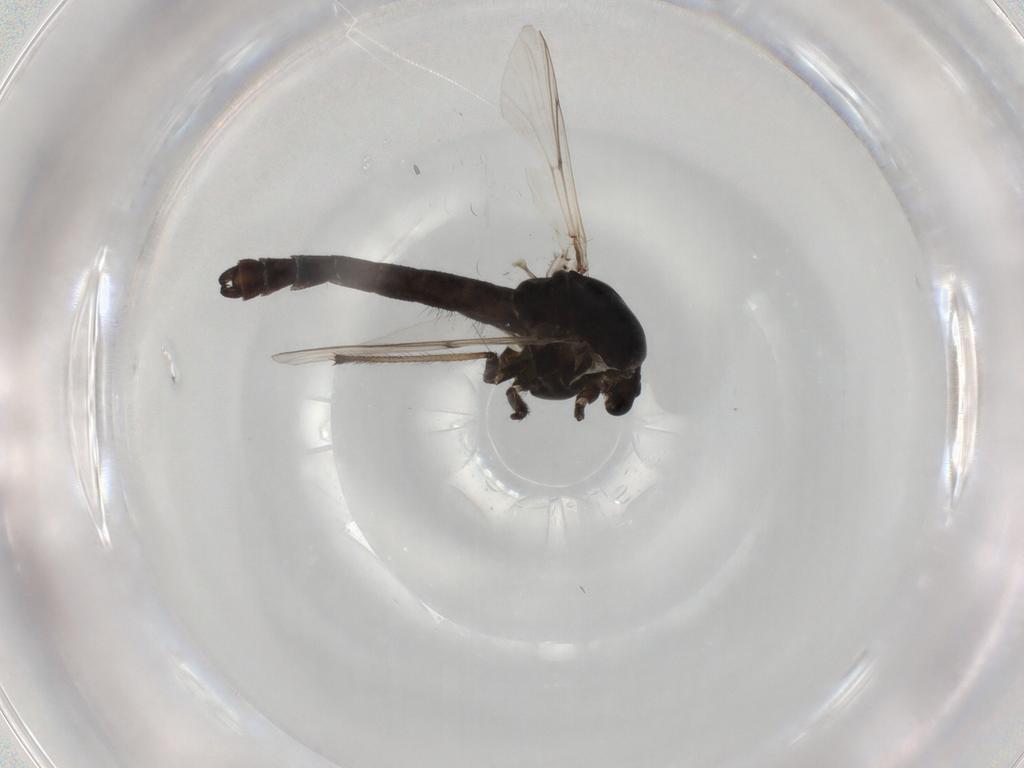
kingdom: Animalia
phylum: Arthropoda
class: Insecta
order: Diptera
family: Chironomidae
